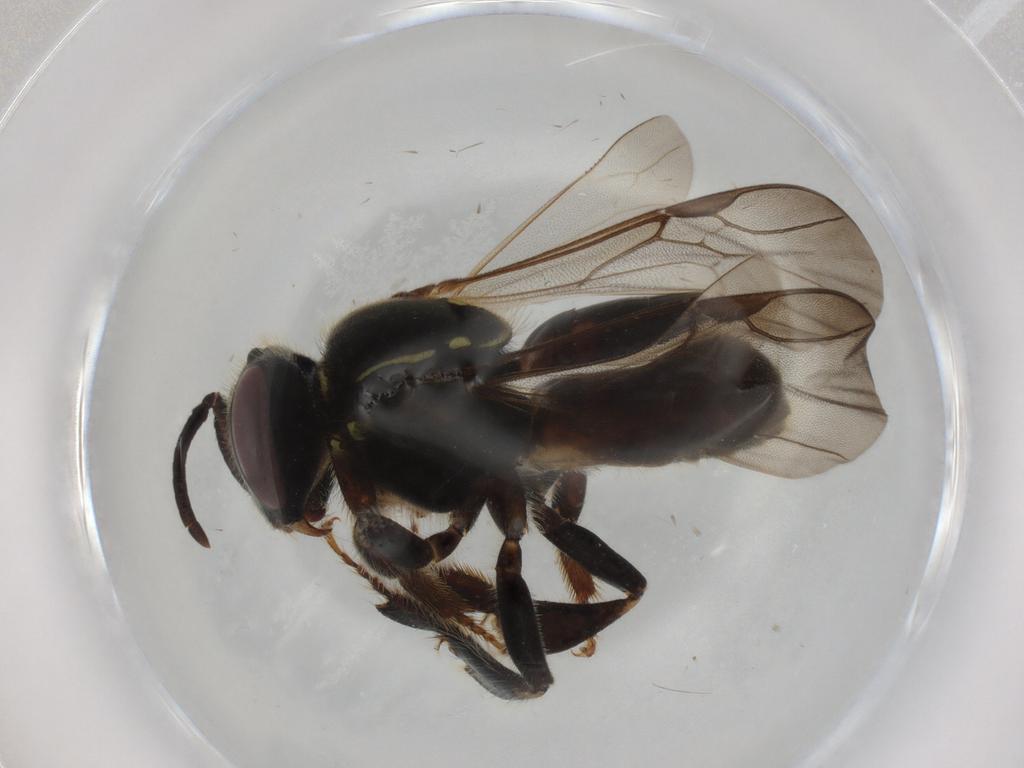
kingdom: Animalia
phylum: Arthropoda
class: Insecta
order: Hymenoptera
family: Apidae
